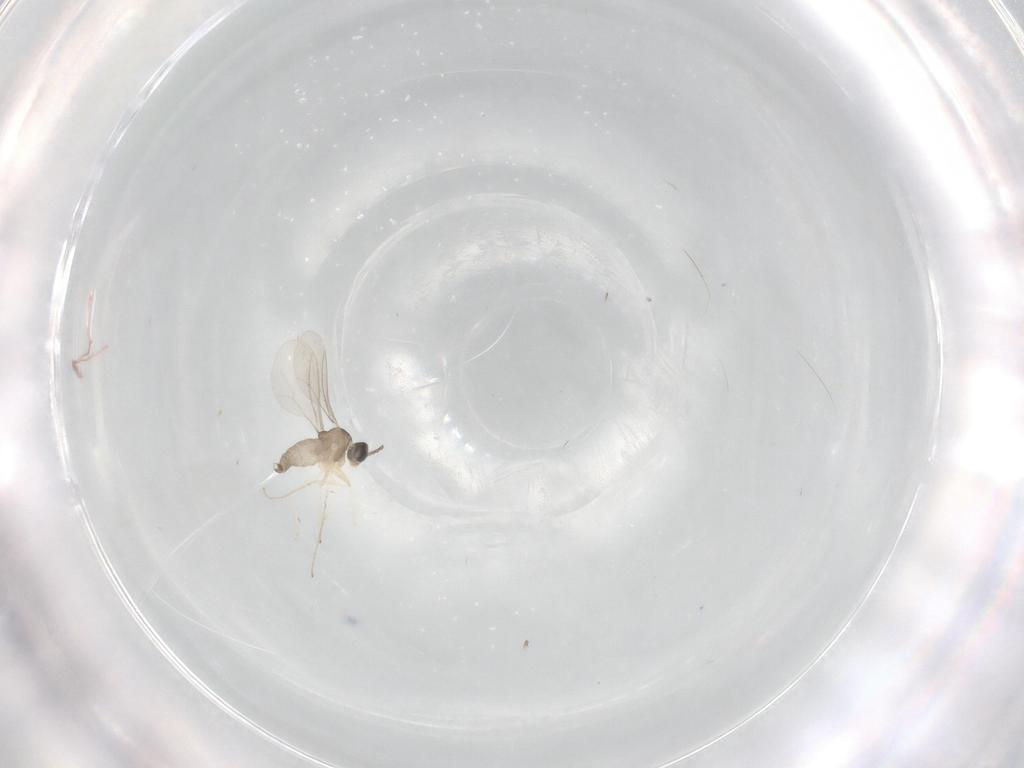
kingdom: Animalia
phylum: Arthropoda
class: Insecta
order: Diptera
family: Cecidomyiidae
